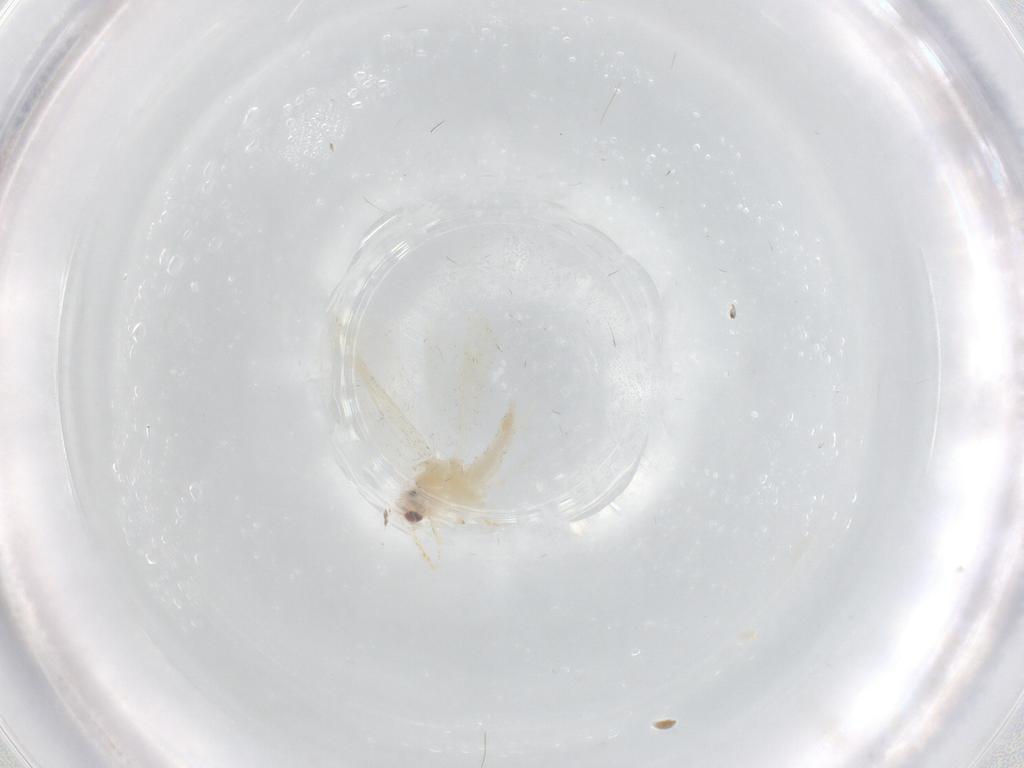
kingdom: Animalia
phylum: Arthropoda
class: Insecta
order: Hemiptera
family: Aleyrodidae
